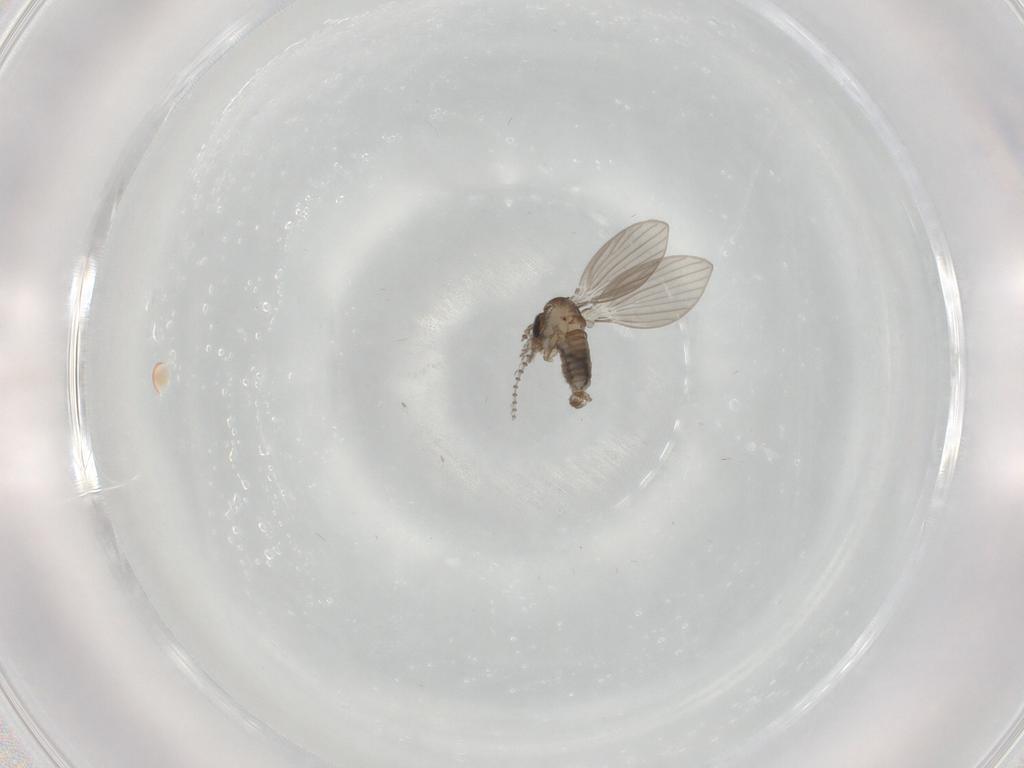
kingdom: Animalia
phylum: Arthropoda
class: Insecta
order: Diptera
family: Psychodidae
